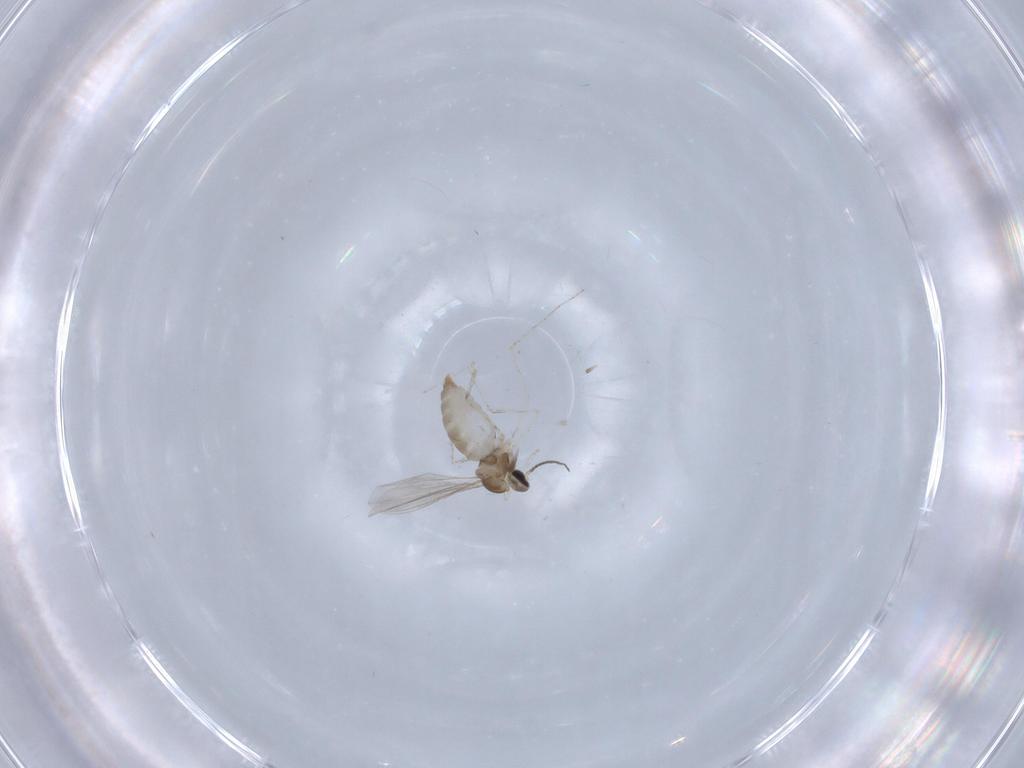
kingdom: Animalia
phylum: Arthropoda
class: Insecta
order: Diptera
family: Cecidomyiidae
